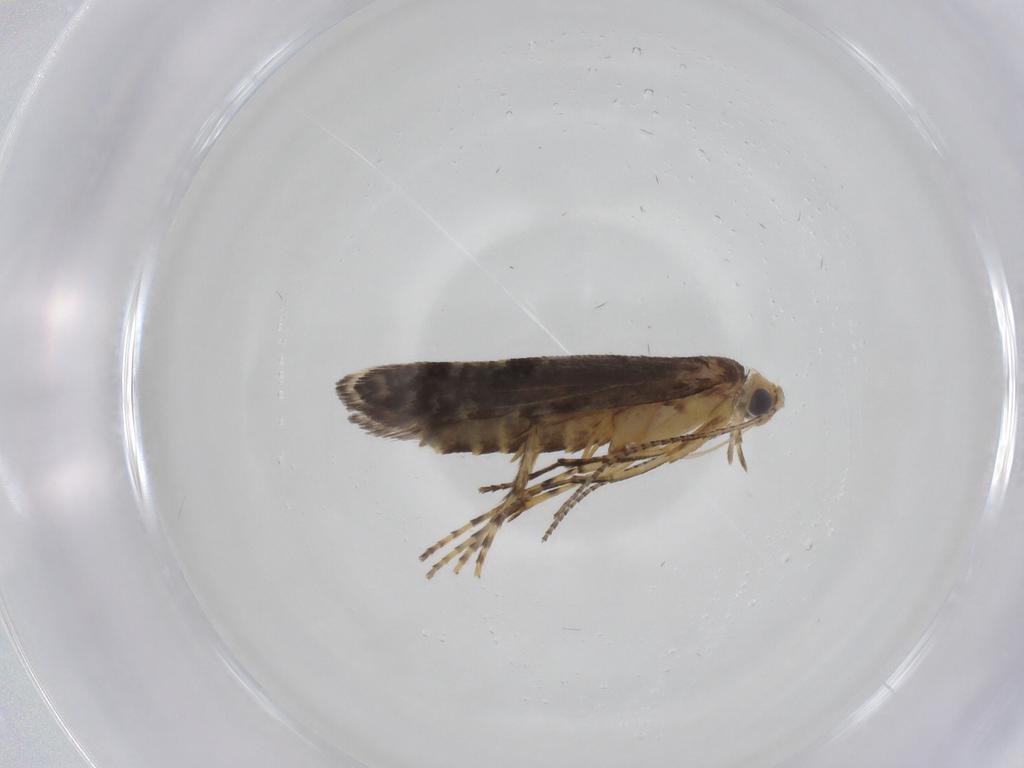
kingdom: Animalia
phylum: Arthropoda
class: Insecta
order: Lepidoptera
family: Argyresthiidae
